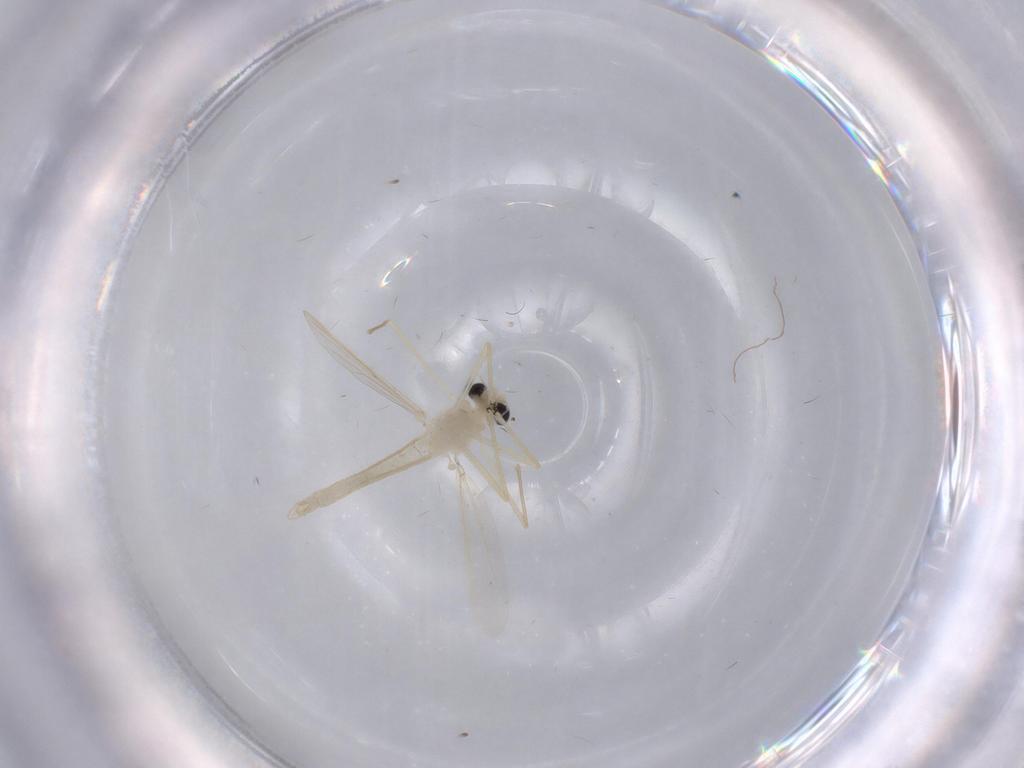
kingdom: Animalia
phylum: Arthropoda
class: Insecta
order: Diptera
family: Chironomidae
